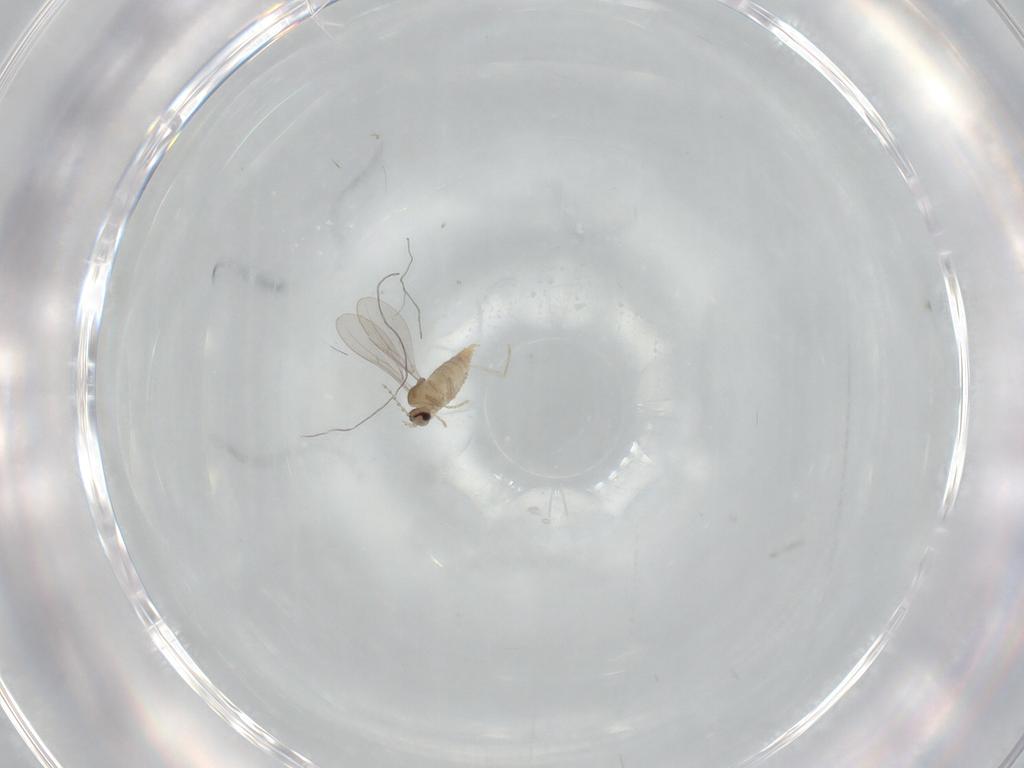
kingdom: Animalia
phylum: Arthropoda
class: Insecta
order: Diptera
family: Cecidomyiidae
